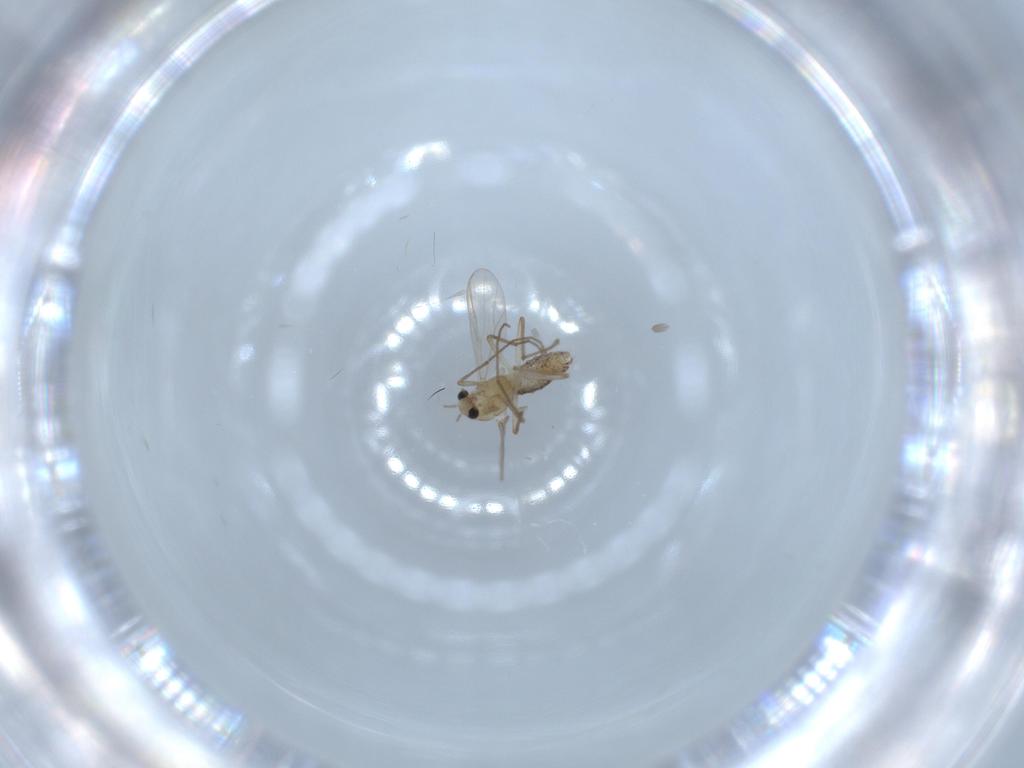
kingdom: Animalia
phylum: Arthropoda
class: Insecta
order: Diptera
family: Chironomidae
